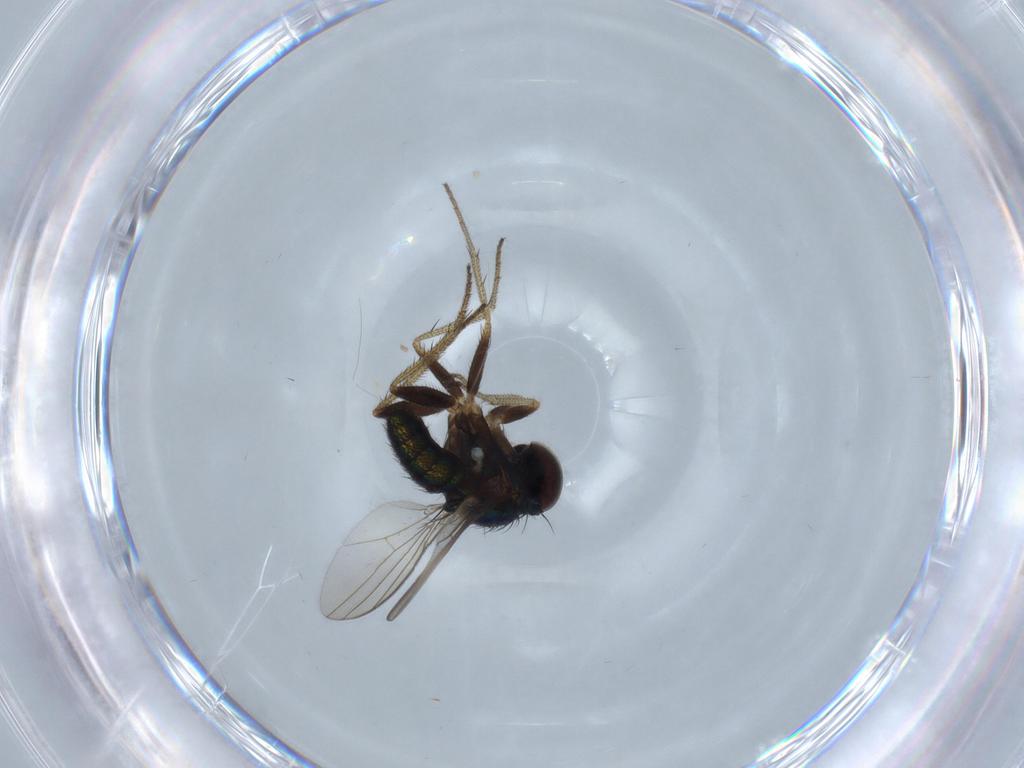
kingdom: Animalia
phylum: Arthropoda
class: Insecta
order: Diptera
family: Dolichopodidae
